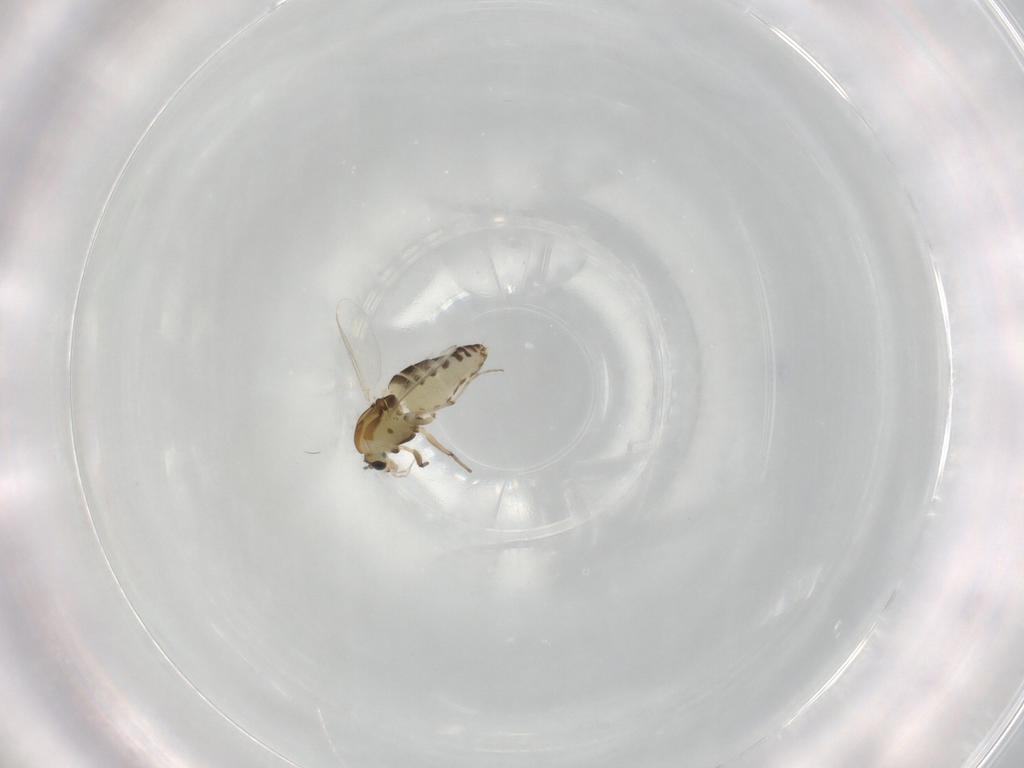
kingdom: Animalia
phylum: Arthropoda
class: Insecta
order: Diptera
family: Chironomidae
